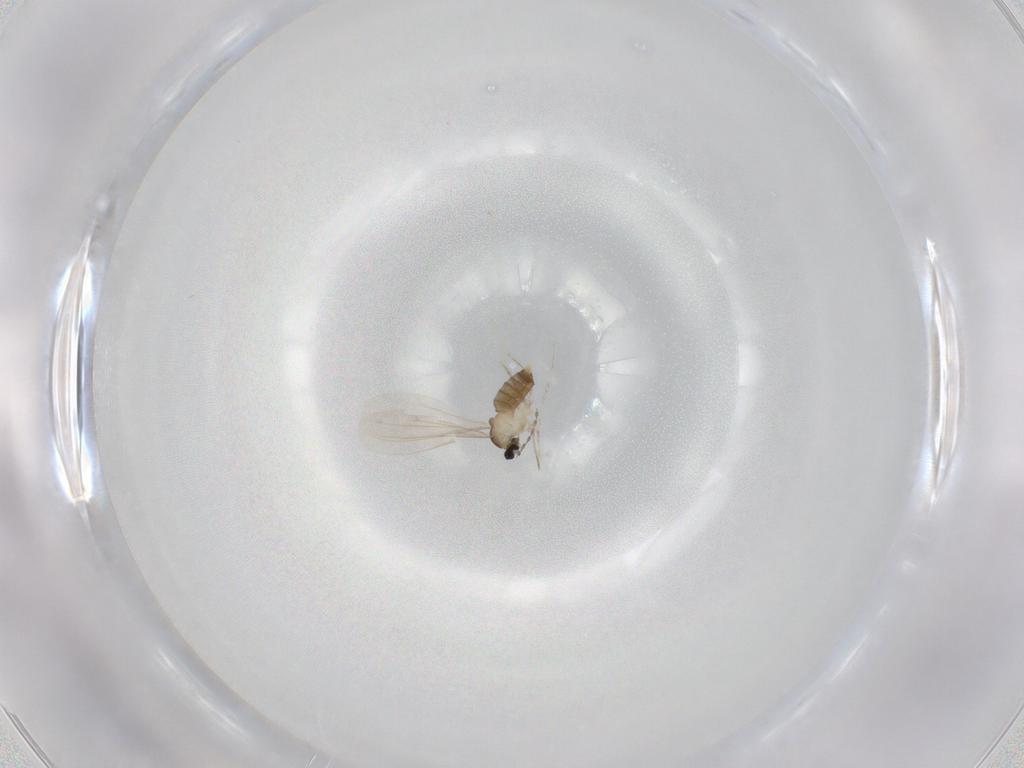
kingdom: Animalia
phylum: Arthropoda
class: Insecta
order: Diptera
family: Cecidomyiidae
